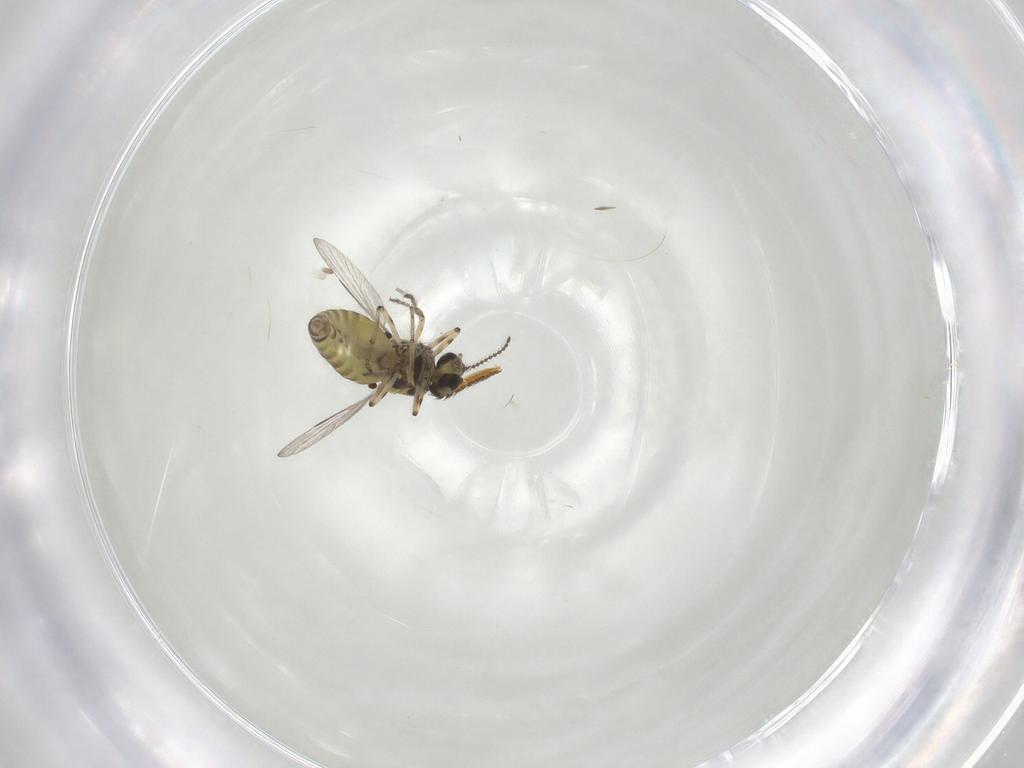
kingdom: Animalia
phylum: Arthropoda
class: Insecta
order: Diptera
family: Ceratopogonidae
